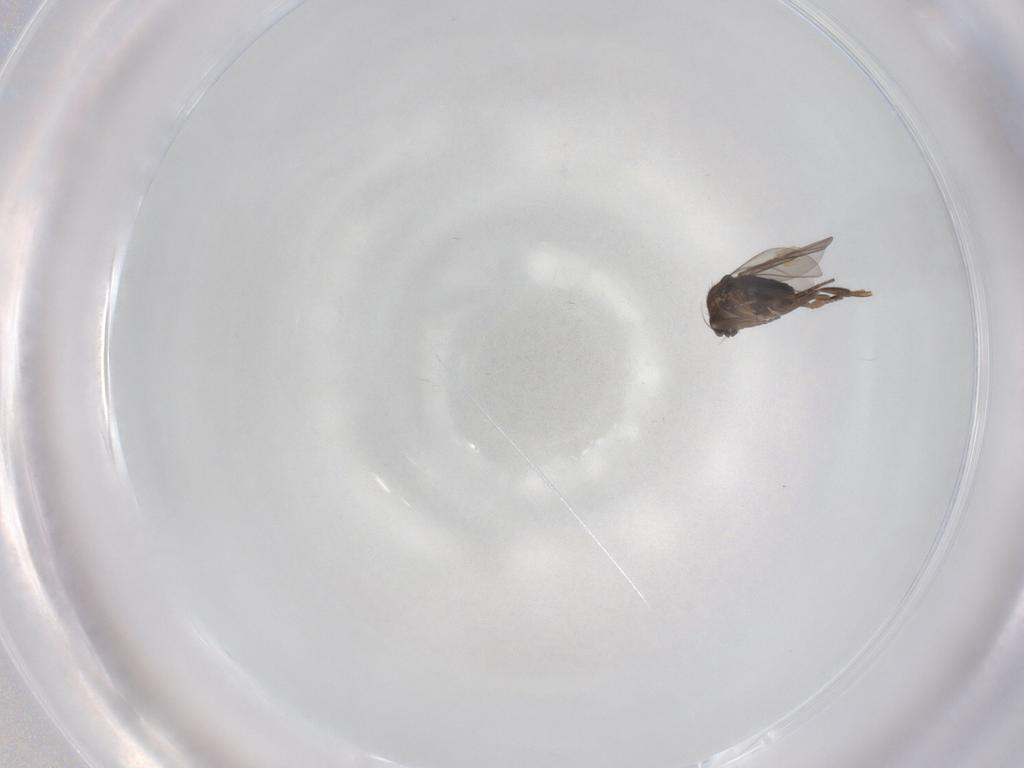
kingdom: Animalia
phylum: Arthropoda
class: Insecta
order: Diptera
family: Phoridae
